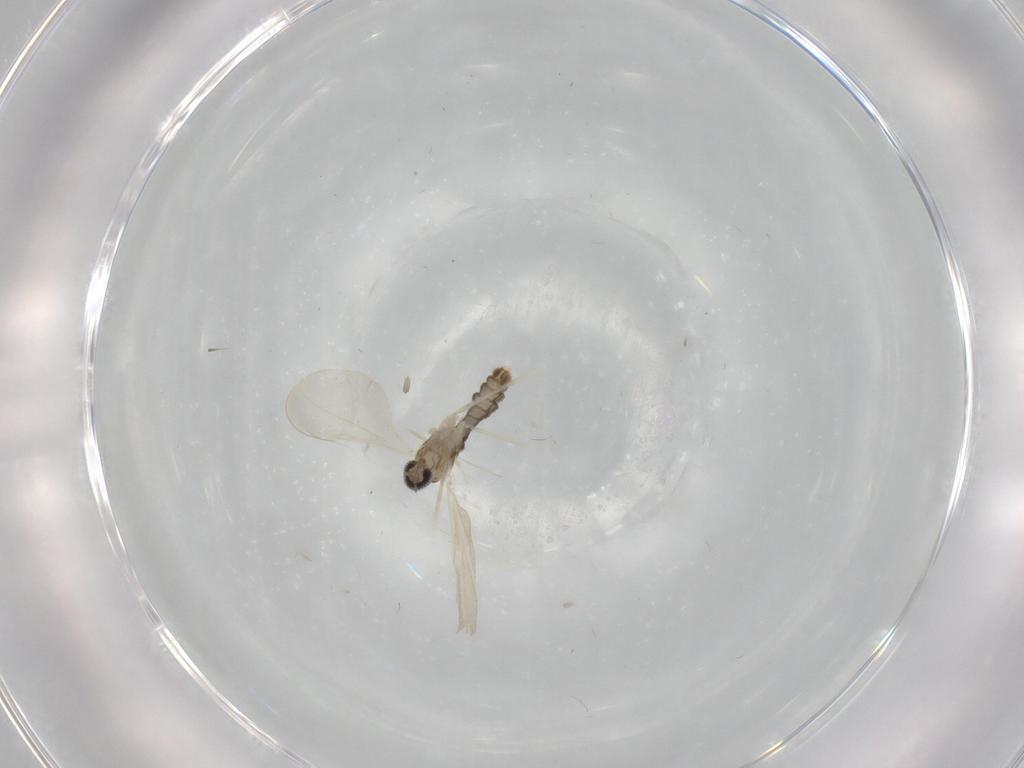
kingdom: Animalia
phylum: Arthropoda
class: Insecta
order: Diptera
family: Cecidomyiidae
